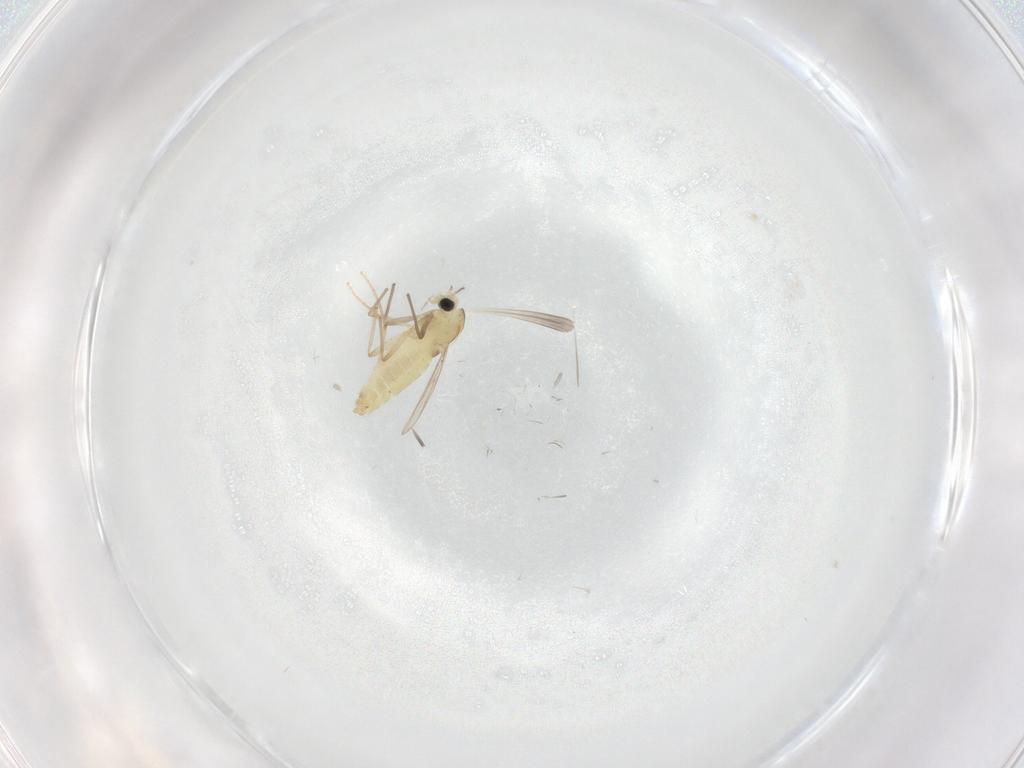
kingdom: Animalia
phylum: Arthropoda
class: Insecta
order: Diptera
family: Chironomidae
